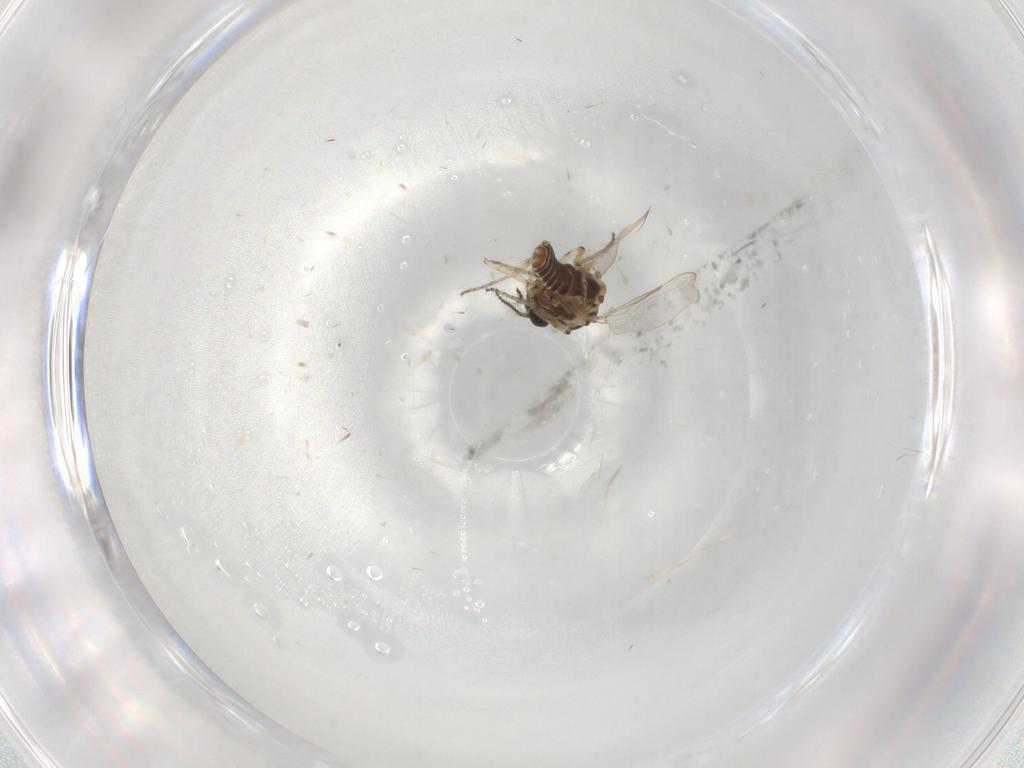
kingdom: Animalia
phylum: Arthropoda
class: Insecta
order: Diptera
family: Ceratopogonidae
